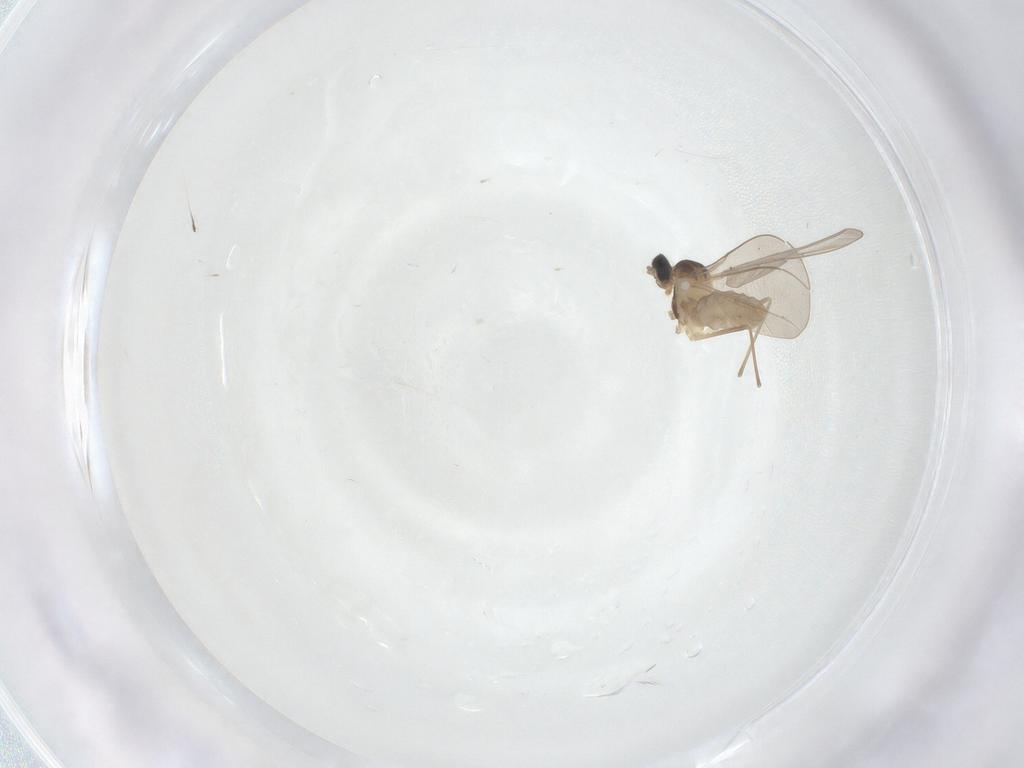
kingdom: Animalia
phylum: Arthropoda
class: Insecta
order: Diptera
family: Cecidomyiidae
